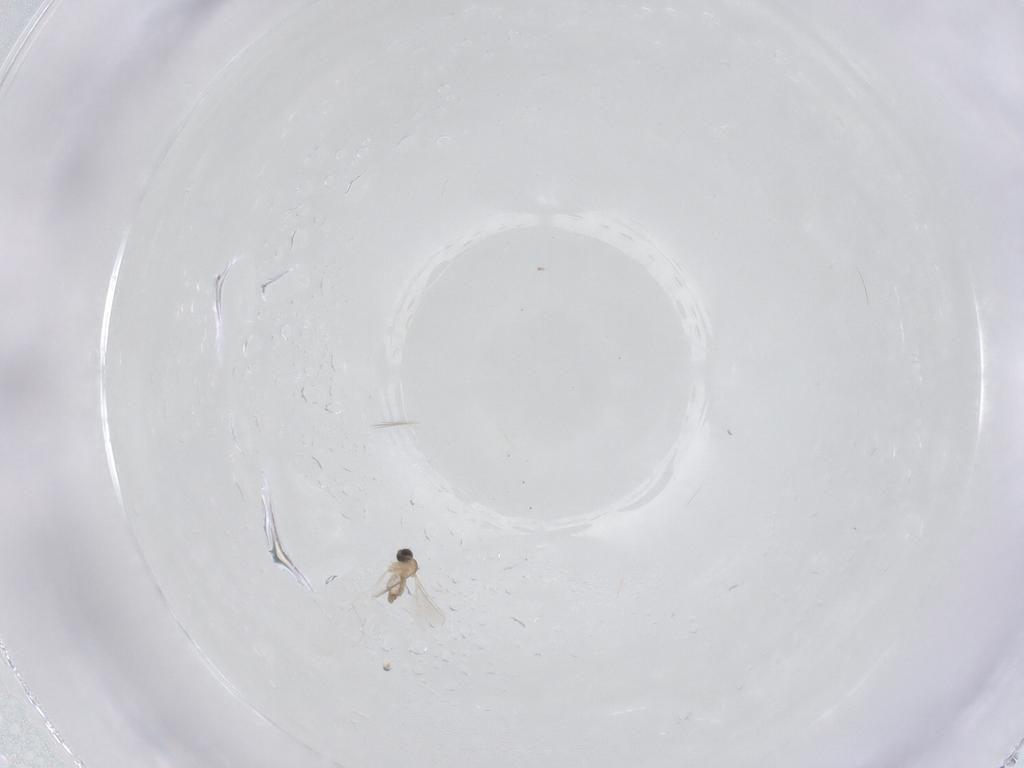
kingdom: Animalia
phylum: Arthropoda
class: Insecta
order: Diptera
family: Cecidomyiidae
